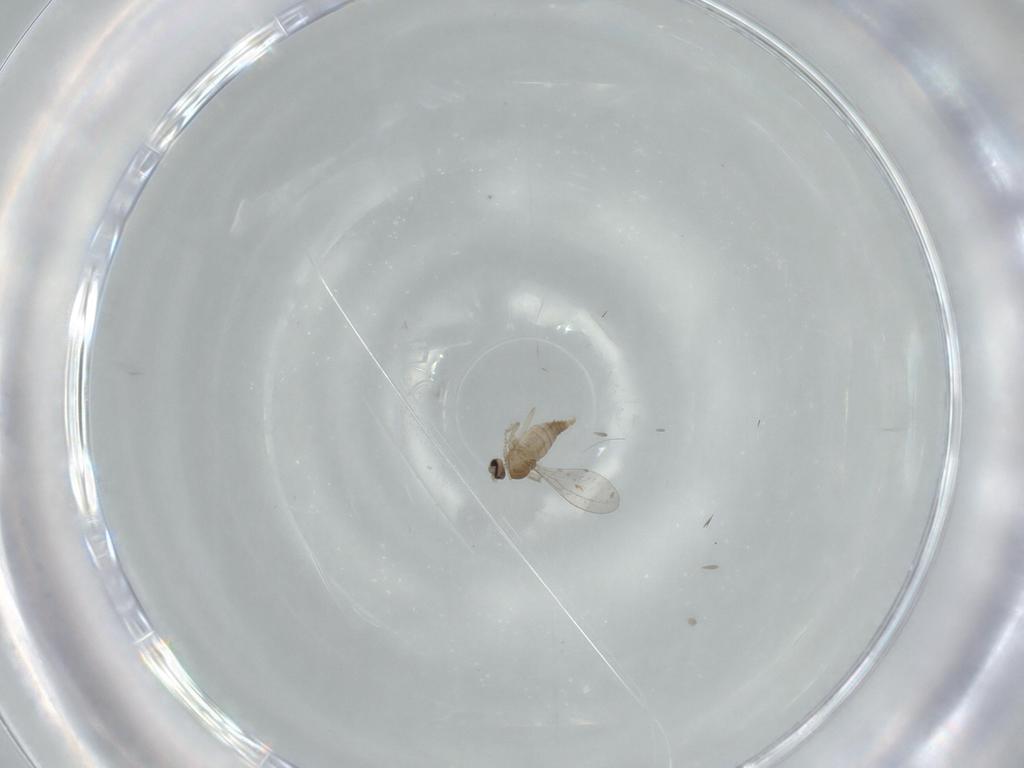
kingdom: Animalia
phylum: Arthropoda
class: Insecta
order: Diptera
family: Cecidomyiidae
